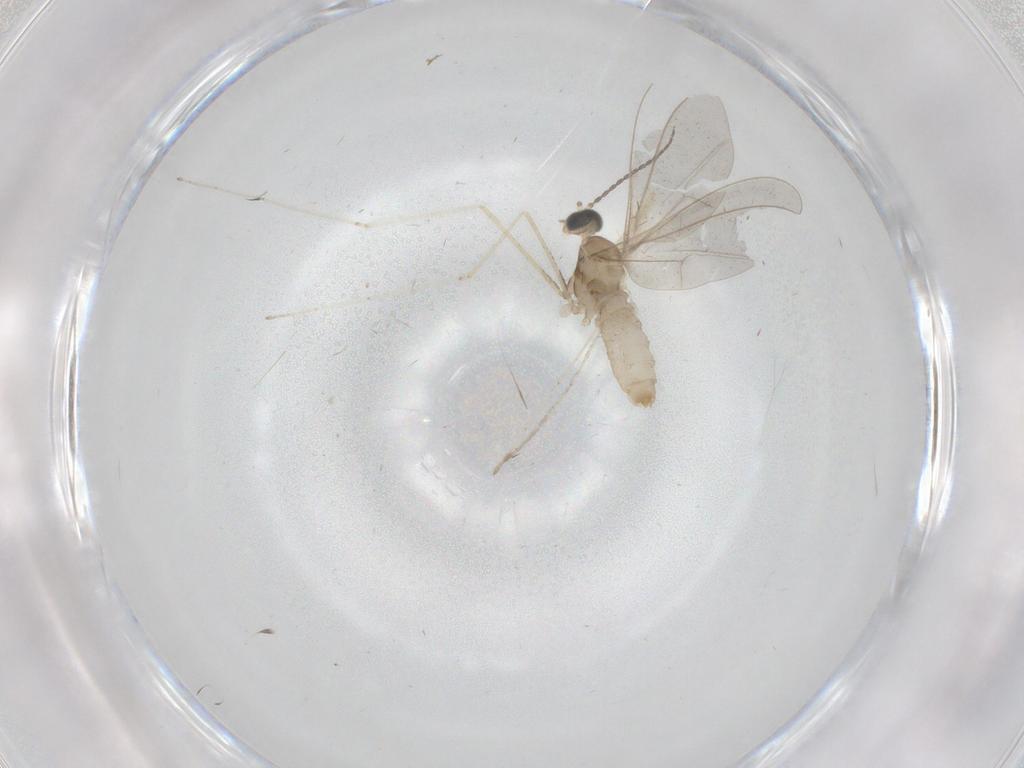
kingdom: Animalia
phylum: Arthropoda
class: Insecta
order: Diptera
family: Cecidomyiidae
